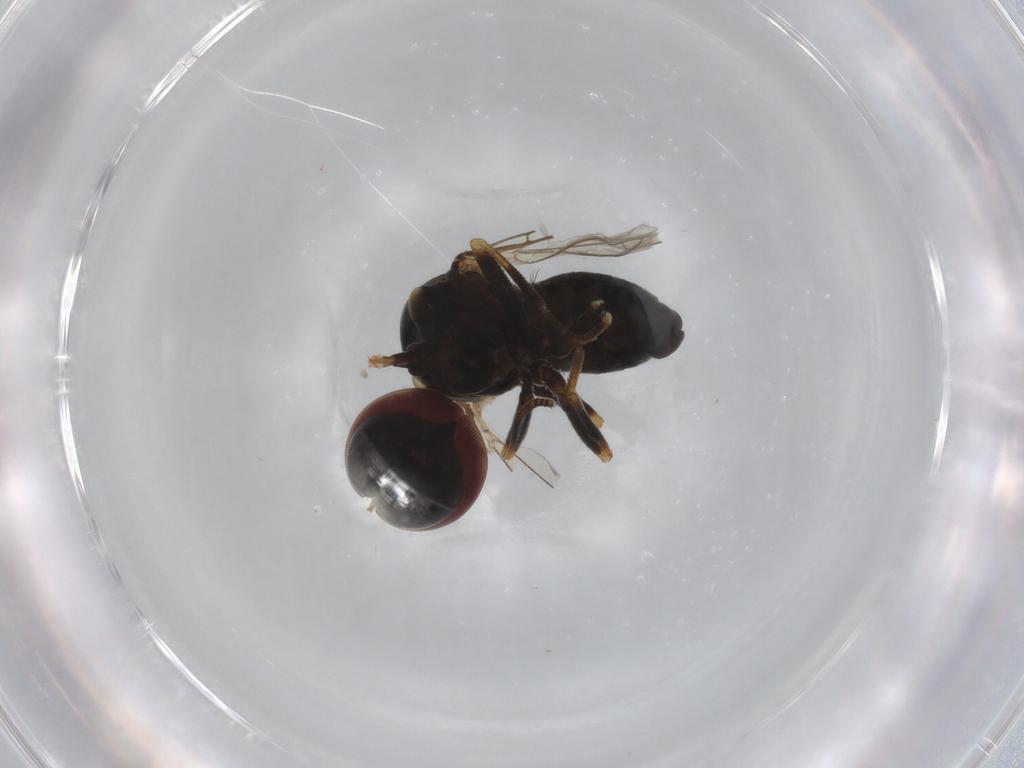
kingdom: Animalia
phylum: Arthropoda
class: Insecta
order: Diptera
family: Pipunculidae
